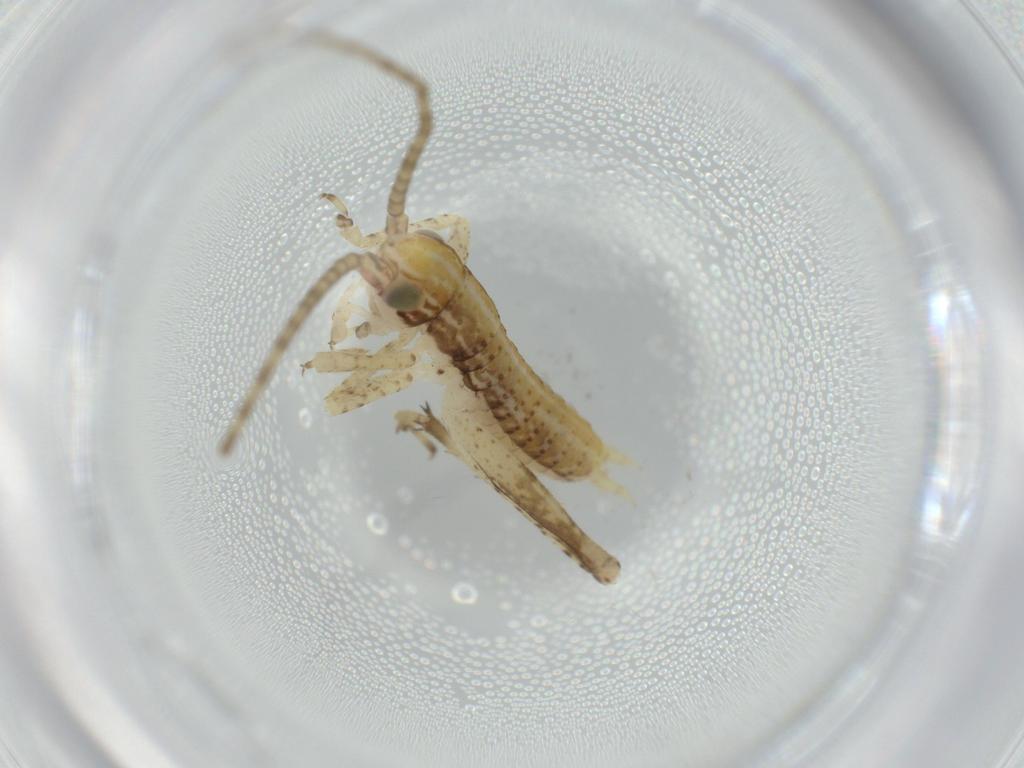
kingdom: Animalia
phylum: Arthropoda
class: Insecta
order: Orthoptera
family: Gryllidae
